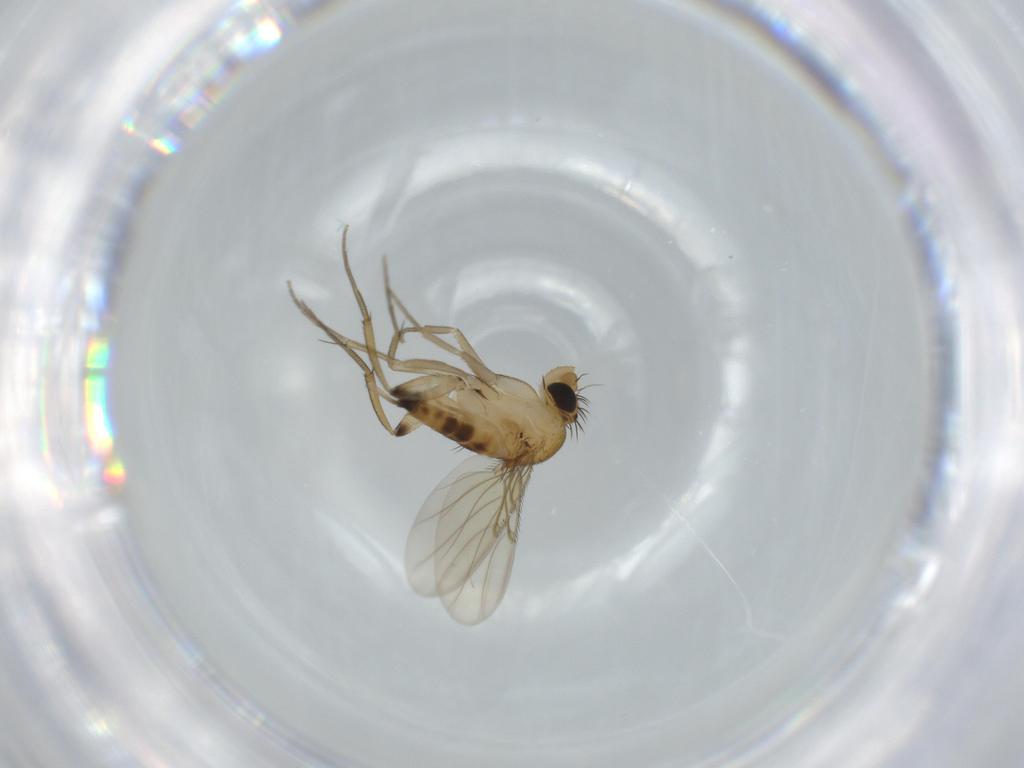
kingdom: Animalia
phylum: Arthropoda
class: Insecta
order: Diptera
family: Phoridae
